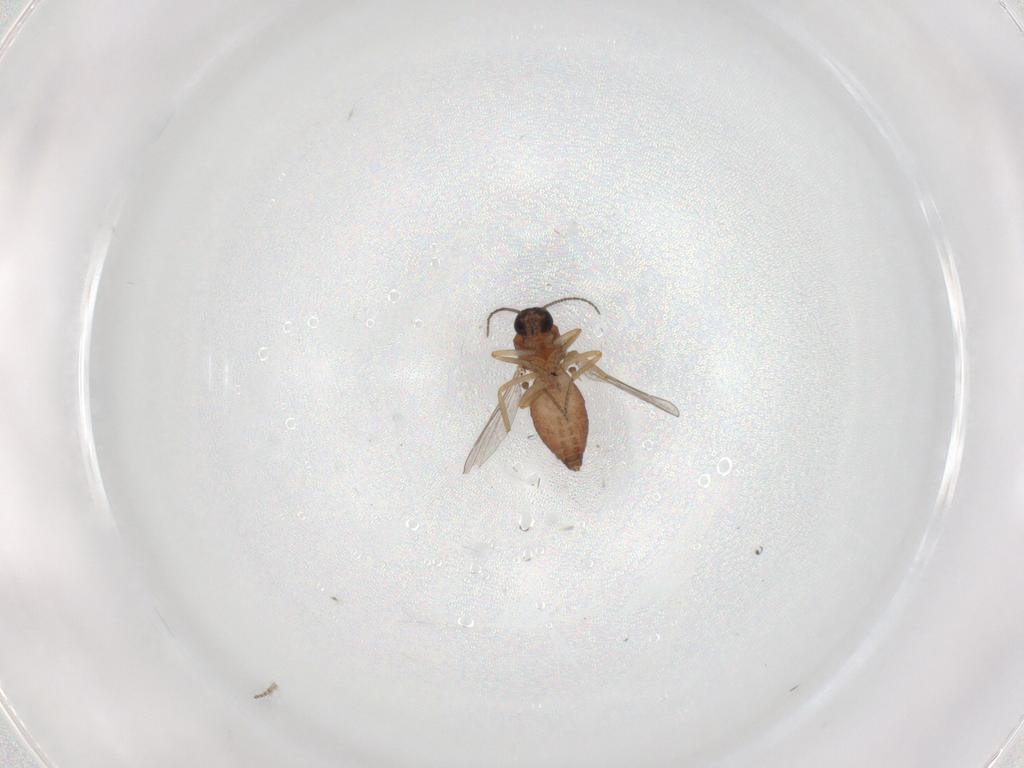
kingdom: Animalia
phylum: Arthropoda
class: Insecta
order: Diptera
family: Ceratopogonidae
